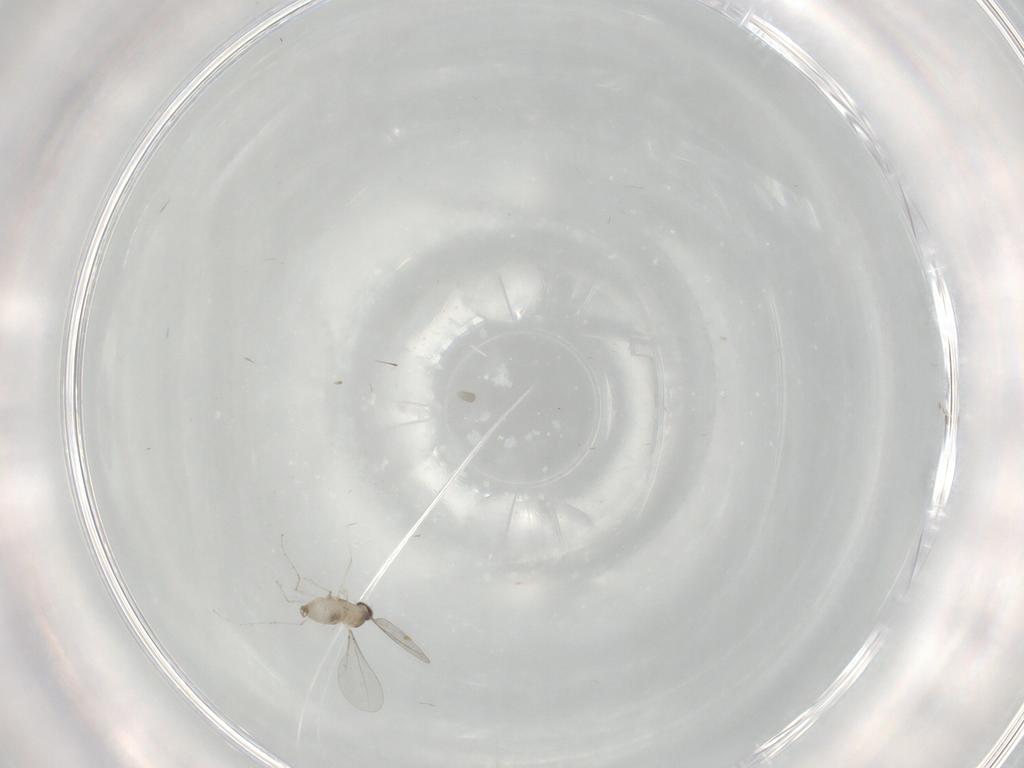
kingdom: Animalia
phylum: Arthropoda
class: Insecta
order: Diptera
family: Cecidomyiidae
